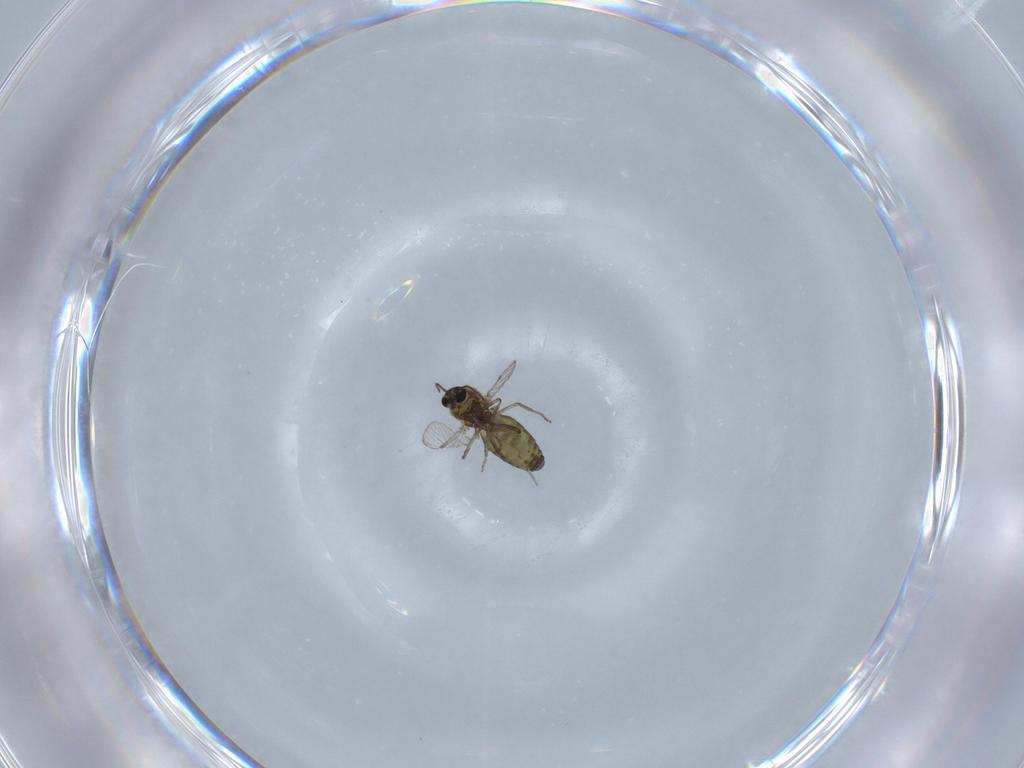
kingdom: Animalia
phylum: Arthropoda
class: Insecta
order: Diptera
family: Ceratopogonidae
